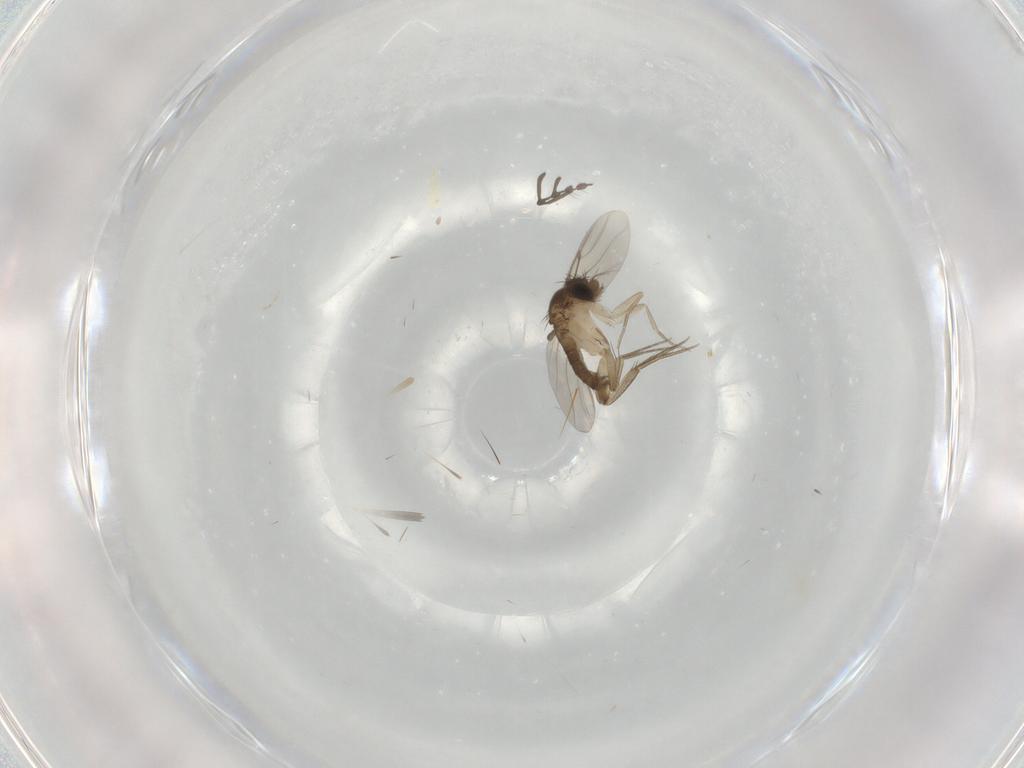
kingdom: Animalia
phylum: Arthropoda
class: Insecta
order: Diptera
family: Phoridae
